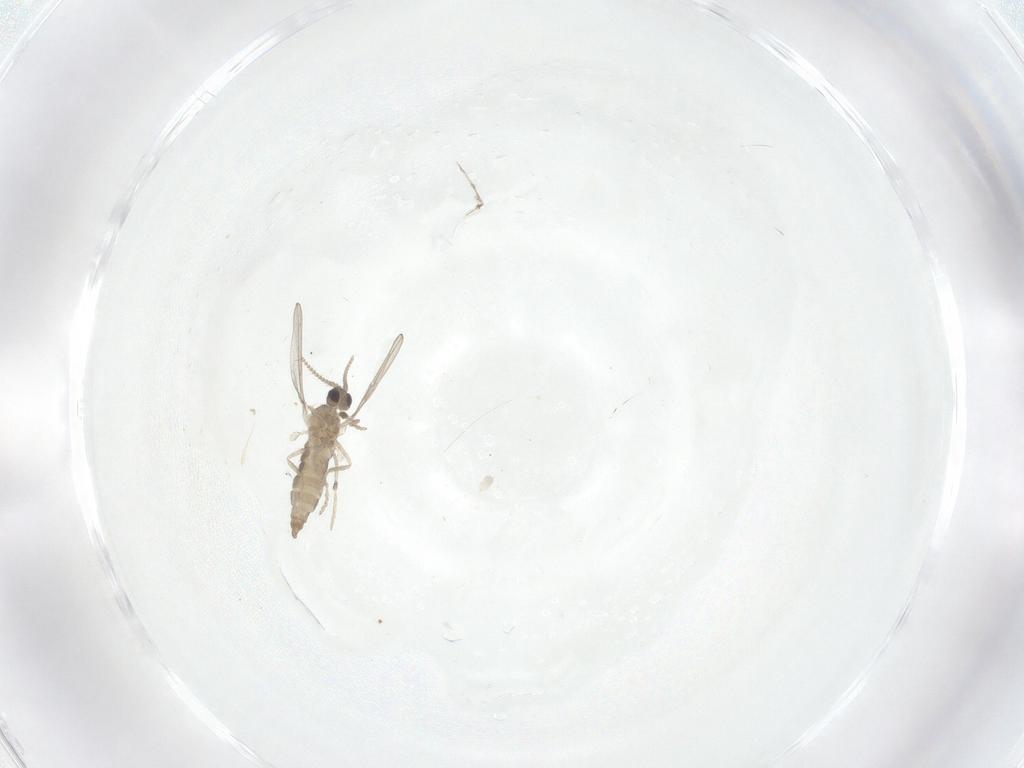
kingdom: Animalia
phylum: Arthropoda
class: Insecta
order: Diptera
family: Cecidomyiidae
